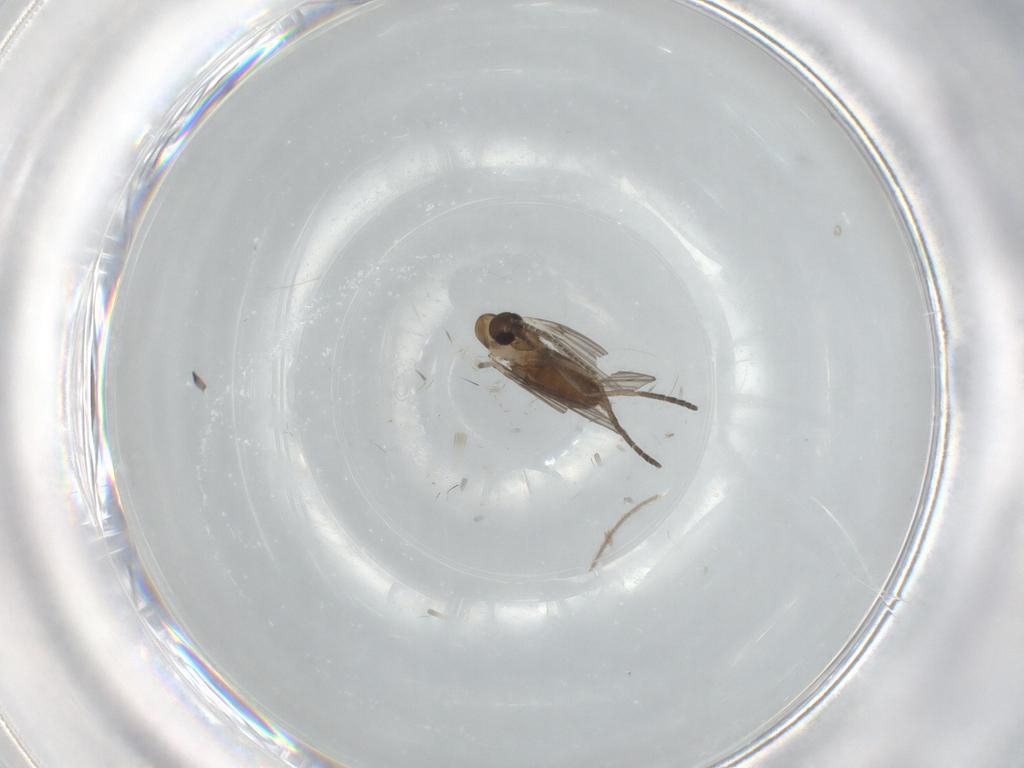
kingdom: Animalia
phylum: Arthropoda
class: Insecta
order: Diptera
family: Psychodidae
